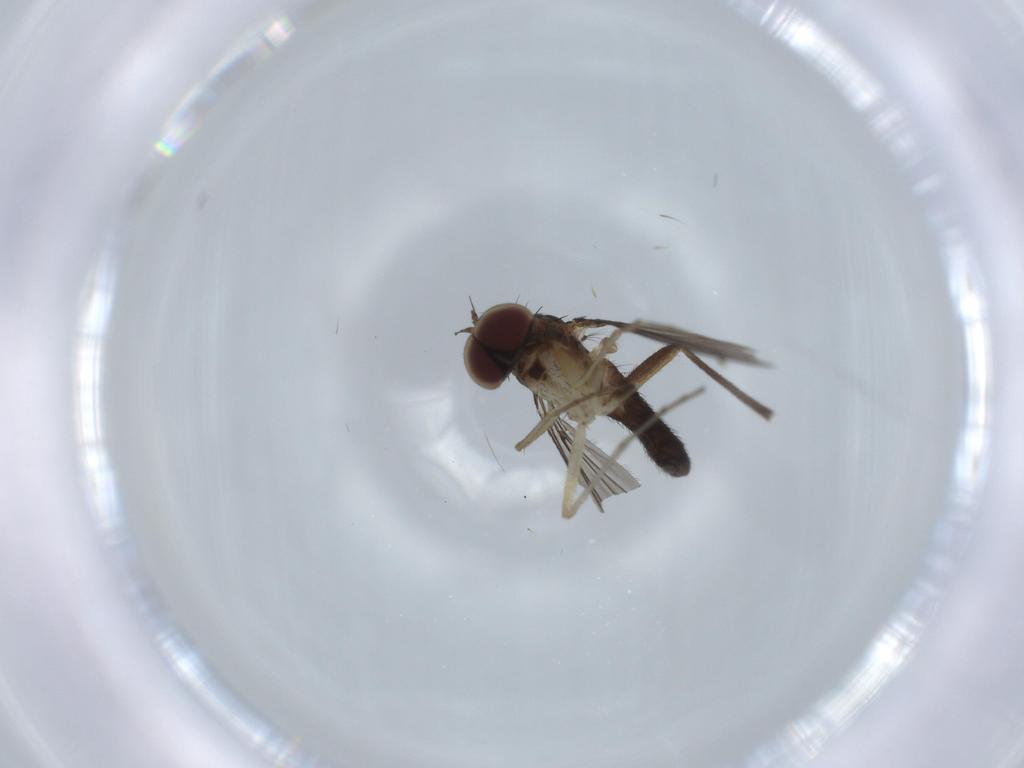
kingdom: Animalia
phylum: Arthropoda
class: Insecta
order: Diptera
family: Dolichopodidae
